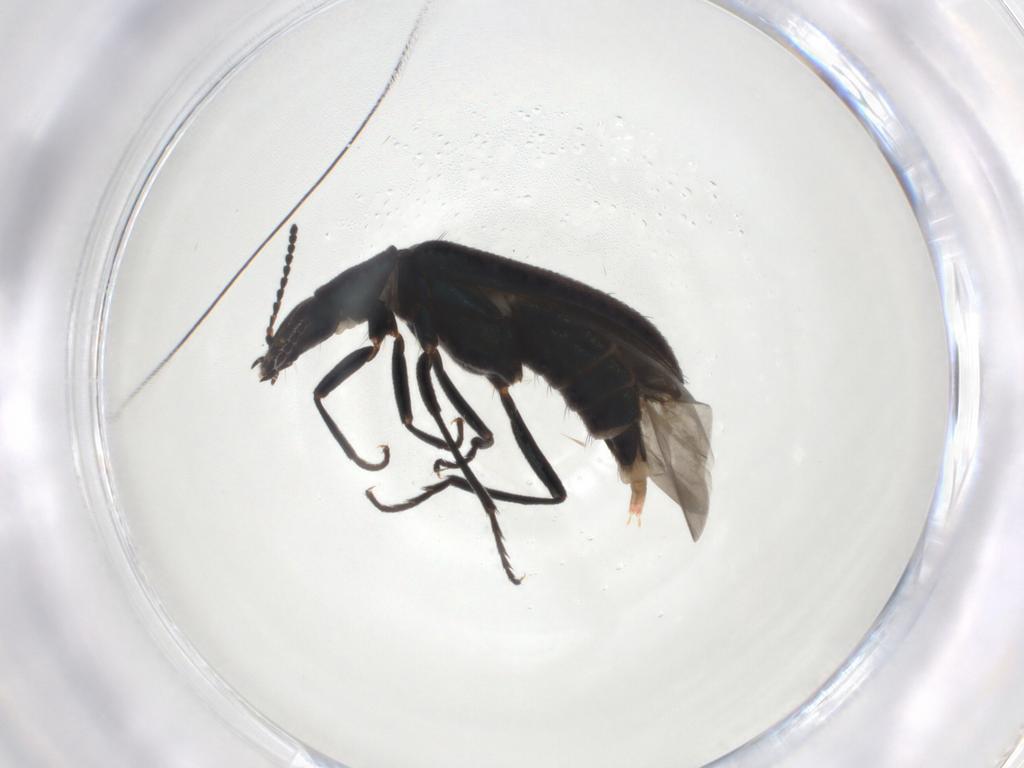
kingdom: Animalia
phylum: Arthropoda
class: Insecta
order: Coleoptera
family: Melyridae
